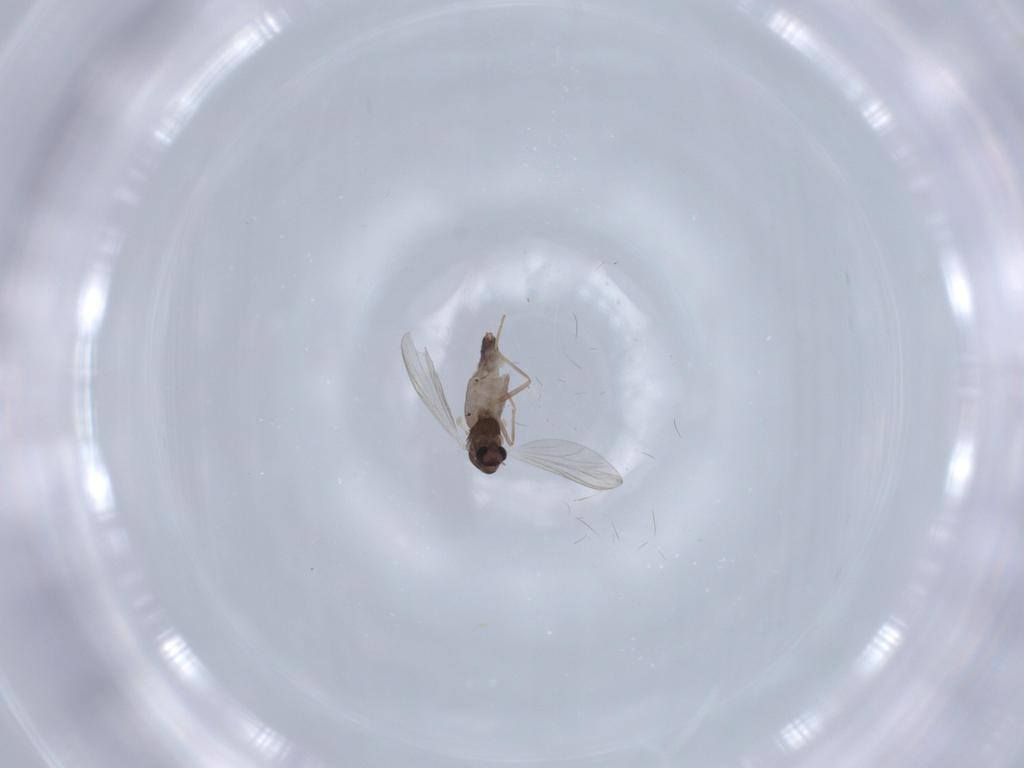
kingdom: Animalia
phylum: Arthropoda
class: Insecta
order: Diptera
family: Chironomidae
